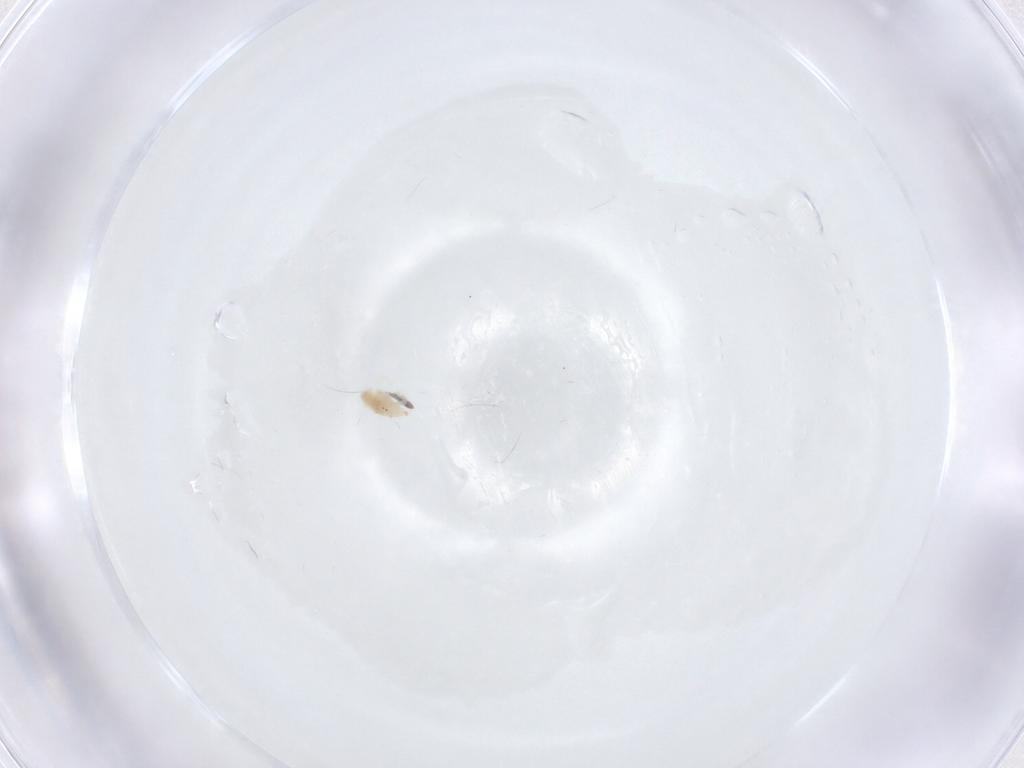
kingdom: Animalia
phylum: Arthropoda
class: Arachnida
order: Trombidiformes
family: Bdellidae
